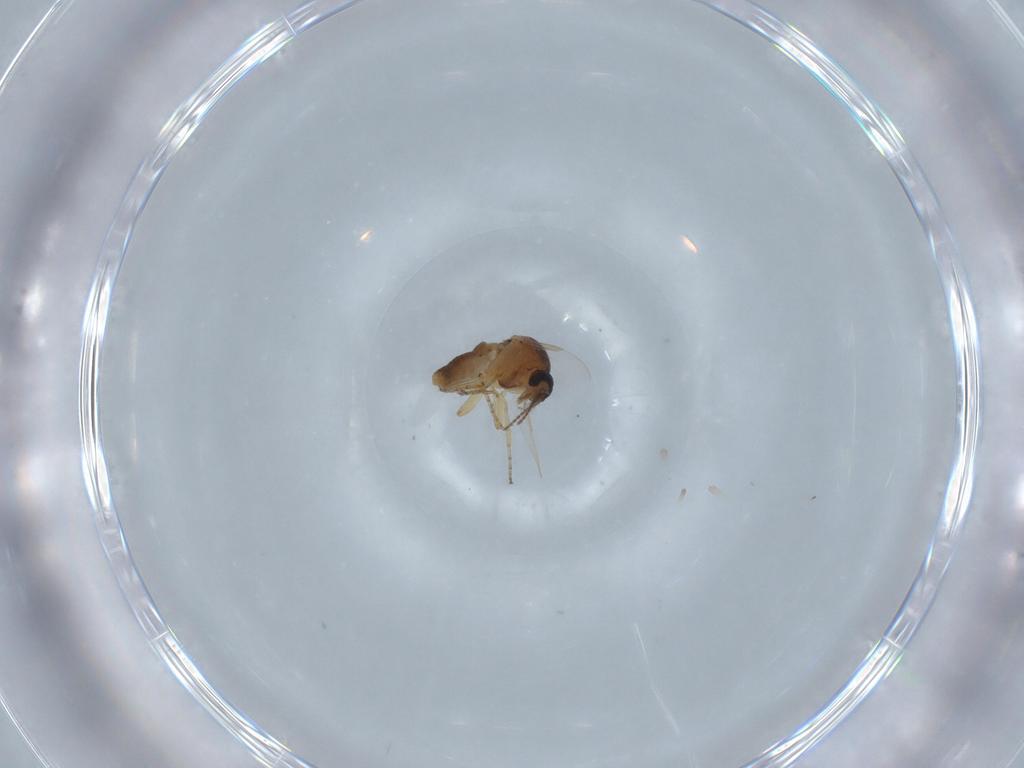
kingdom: Animalia
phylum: Arthropoda
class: Insecta
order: Diptera
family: Ceratopogonidae
